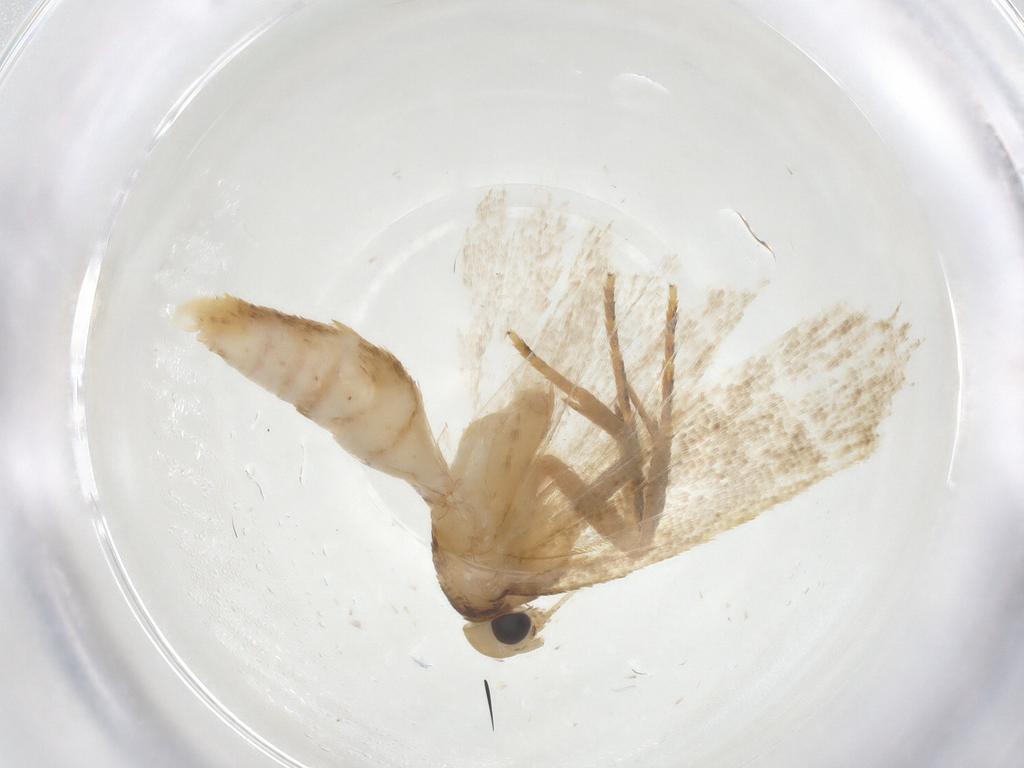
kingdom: Animalia
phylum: Arthropoda
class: Insecta
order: Lepidoptera
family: Gelechiidae
